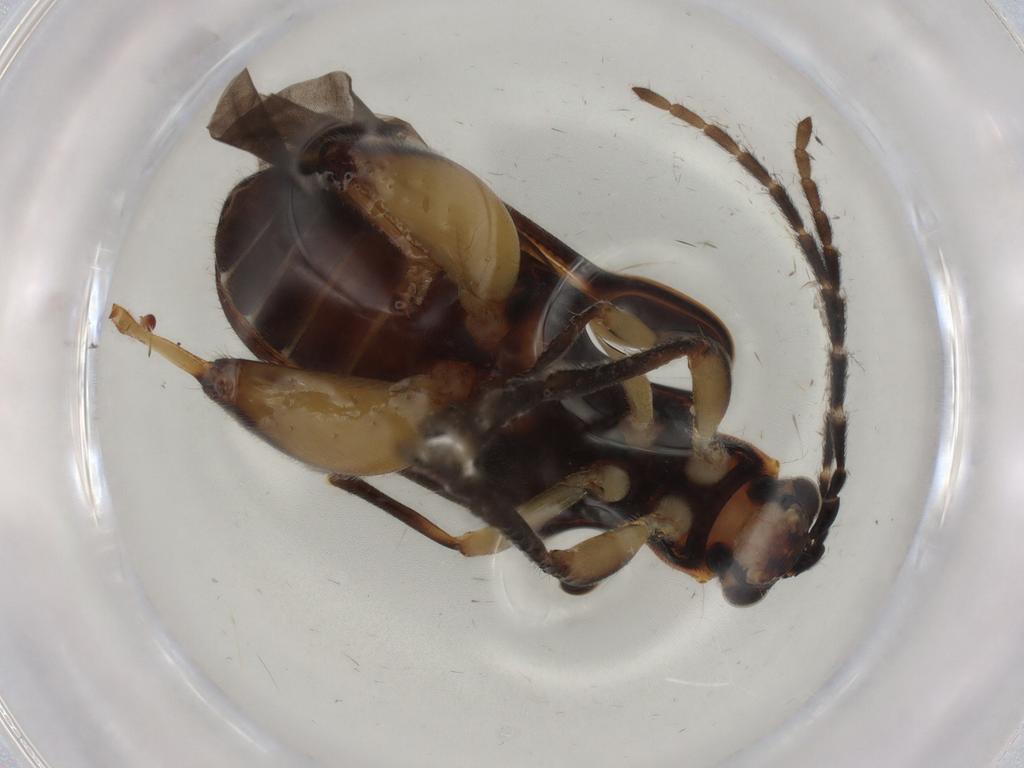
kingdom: Animalia
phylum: Arthropoda
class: Insecta
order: Coleoptera
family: Chrysomelidae
